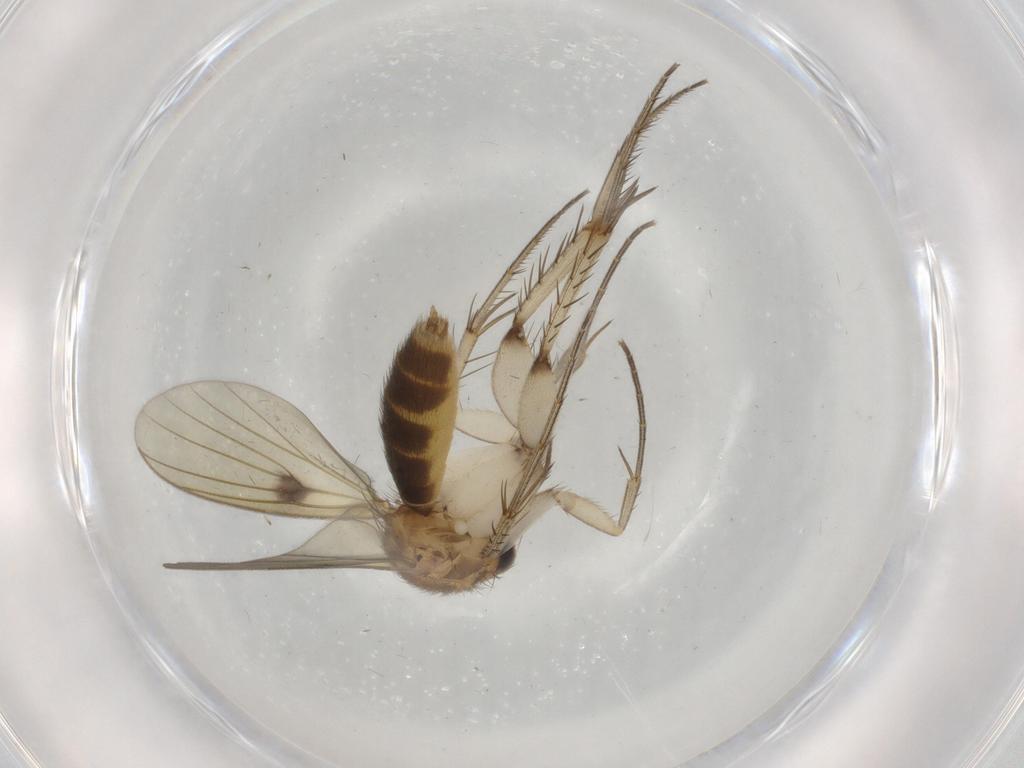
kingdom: Animalia
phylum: Arthropoda
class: Insecta
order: Diptera
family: Mycetophilidae
